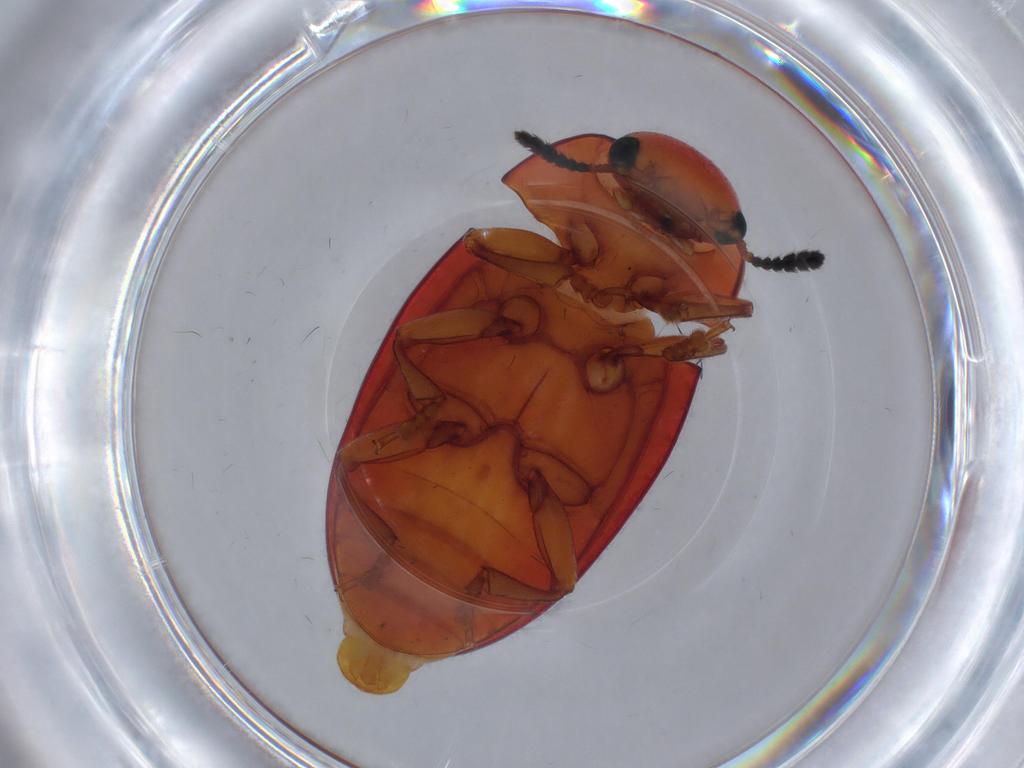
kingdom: Animalia
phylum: Arthropoda
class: Insecta
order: Coleoptera
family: Erotylidae
